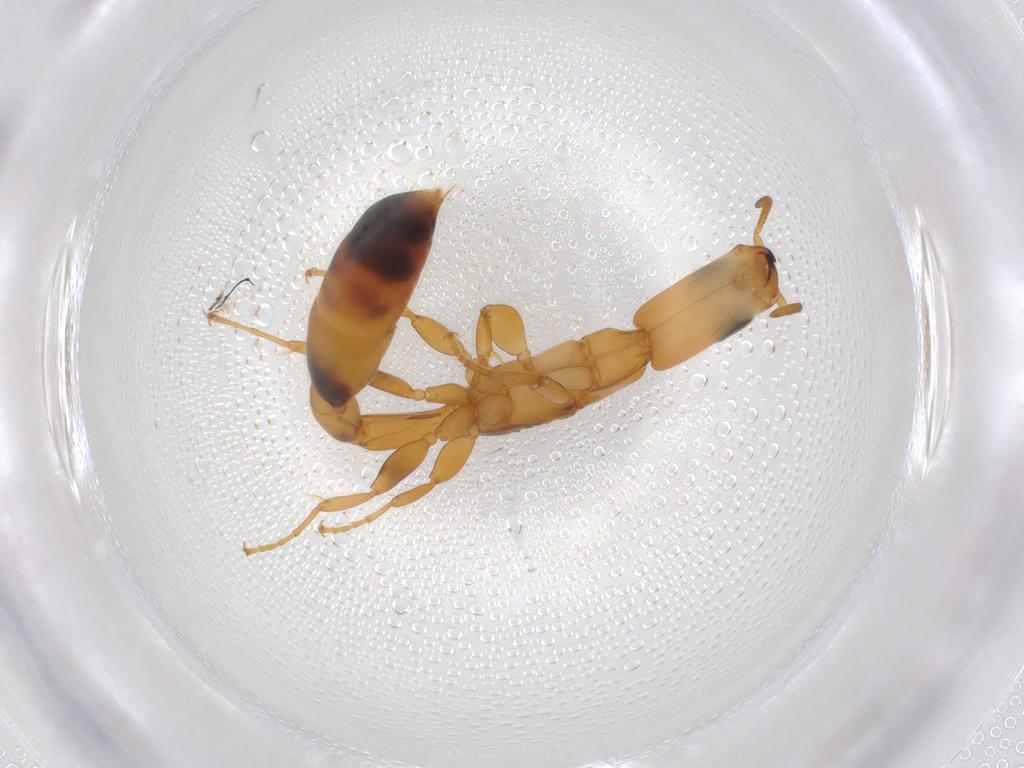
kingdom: Animalia
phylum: Arthropoda
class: Insecta
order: Hymenoptera
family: Formicidae
